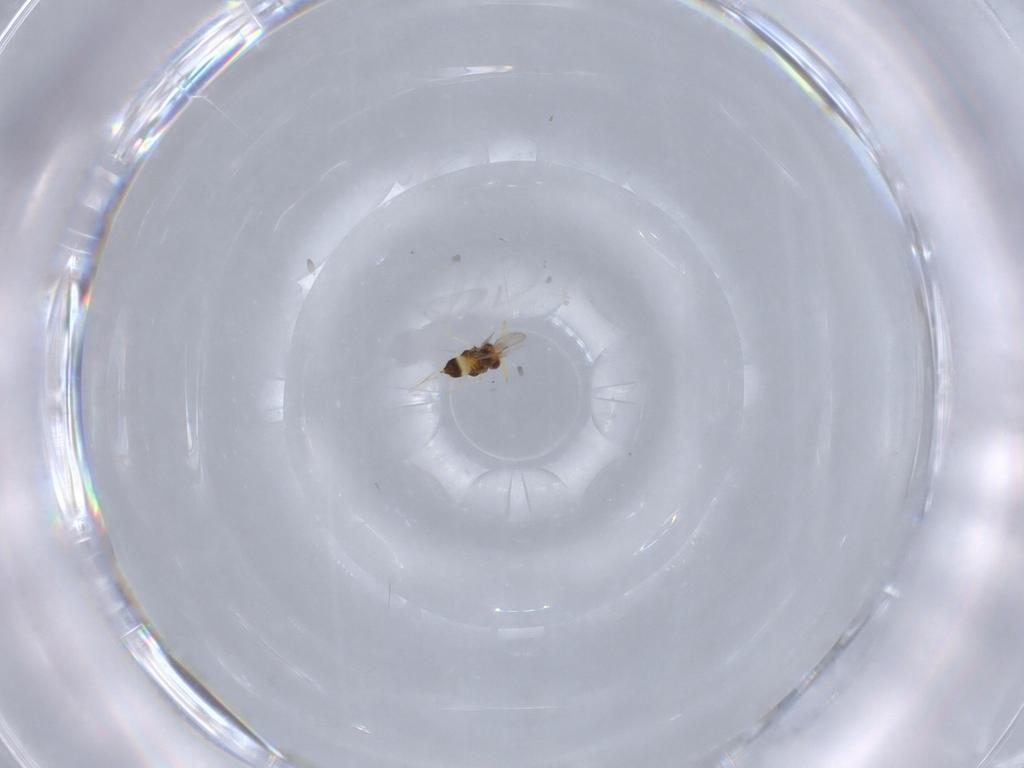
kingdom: Animalia
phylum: Arthropoda
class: Insecta
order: Hymenoptera
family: Aphelinidae
